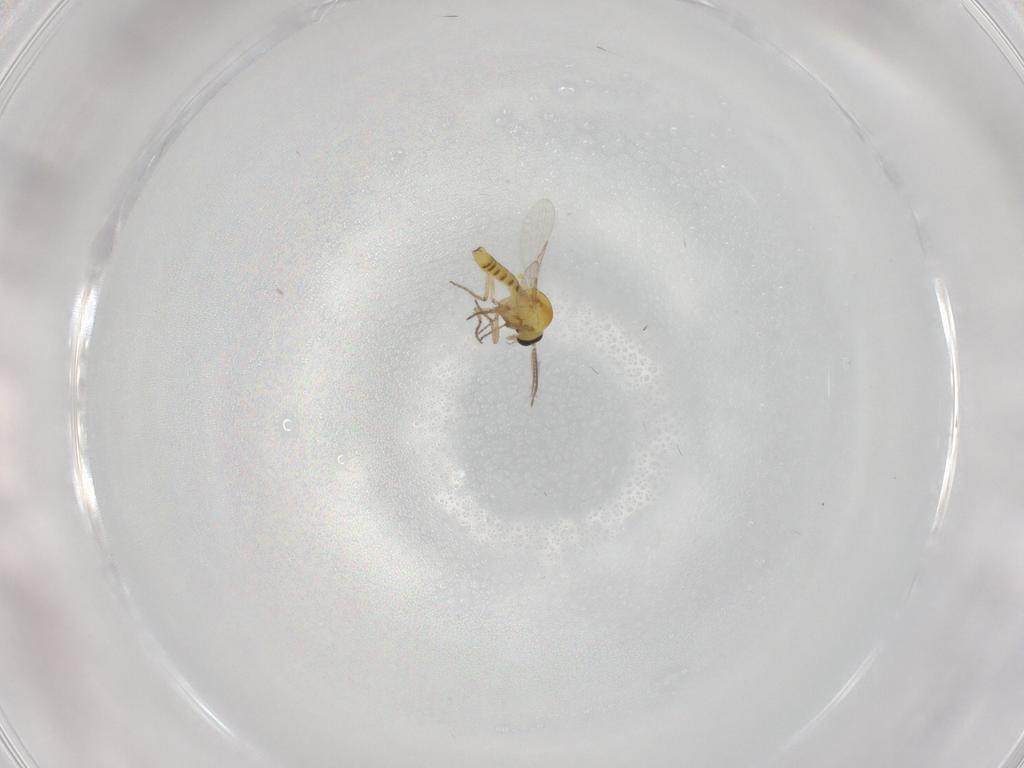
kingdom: Animalia
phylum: Arthropoda
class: Insecta
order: Diptera
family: Ceratopogonidae
